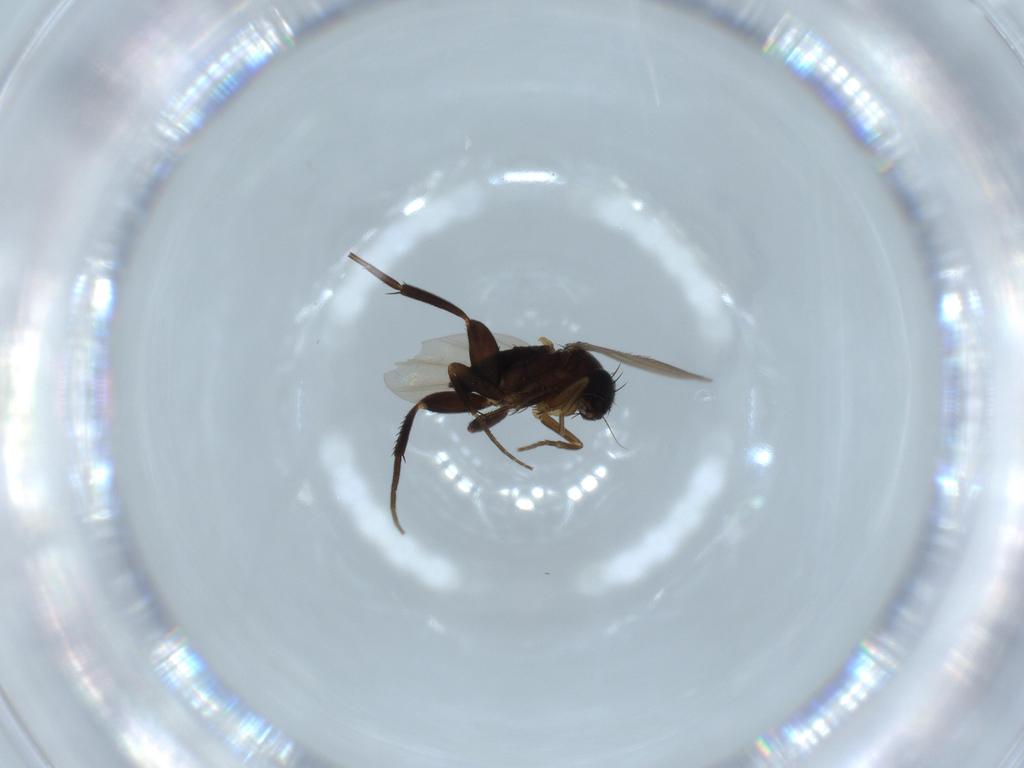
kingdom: Animalia
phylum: Arthropoda
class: Insecta
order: Diptera
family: Phoridae
